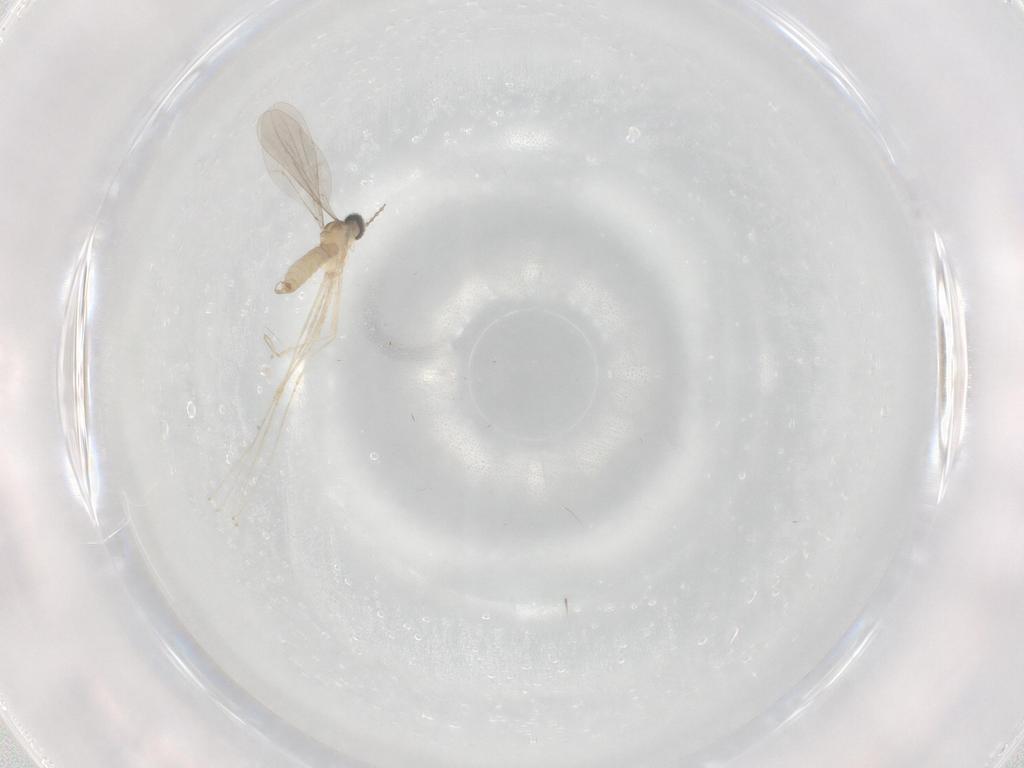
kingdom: Animalia
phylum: Arthropoda
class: Insecta
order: Diptera
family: Cecidomyiidae
